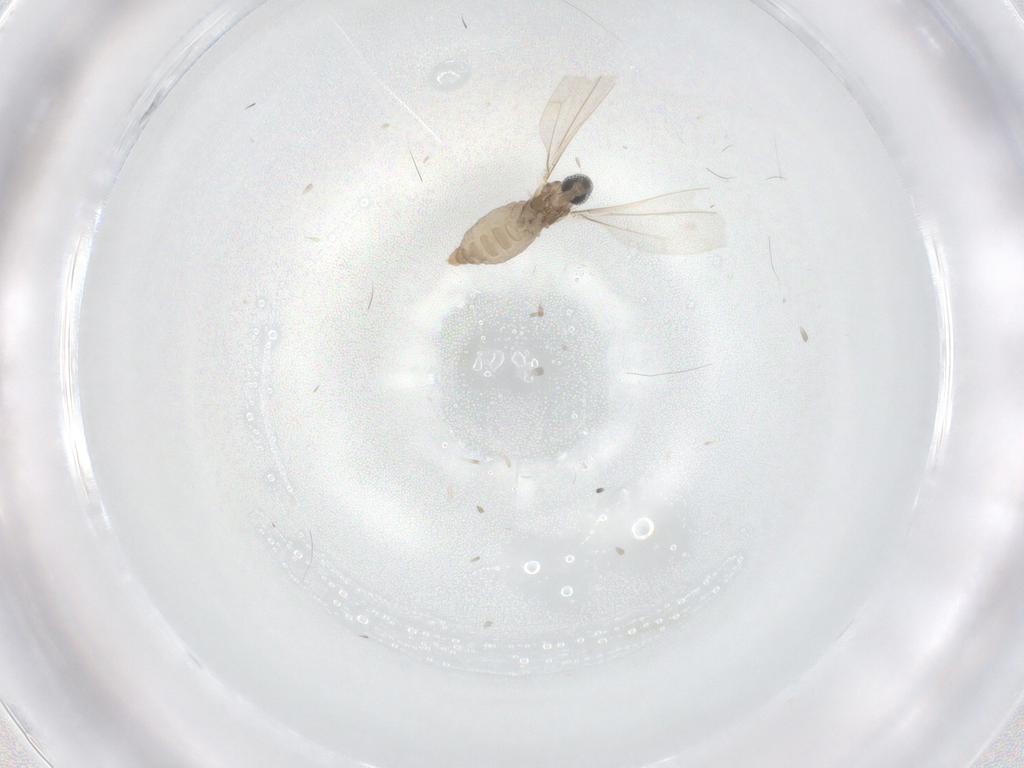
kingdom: Animalia
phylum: Arthropoda
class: Insecta
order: Diptera
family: Cecidomyiidae
